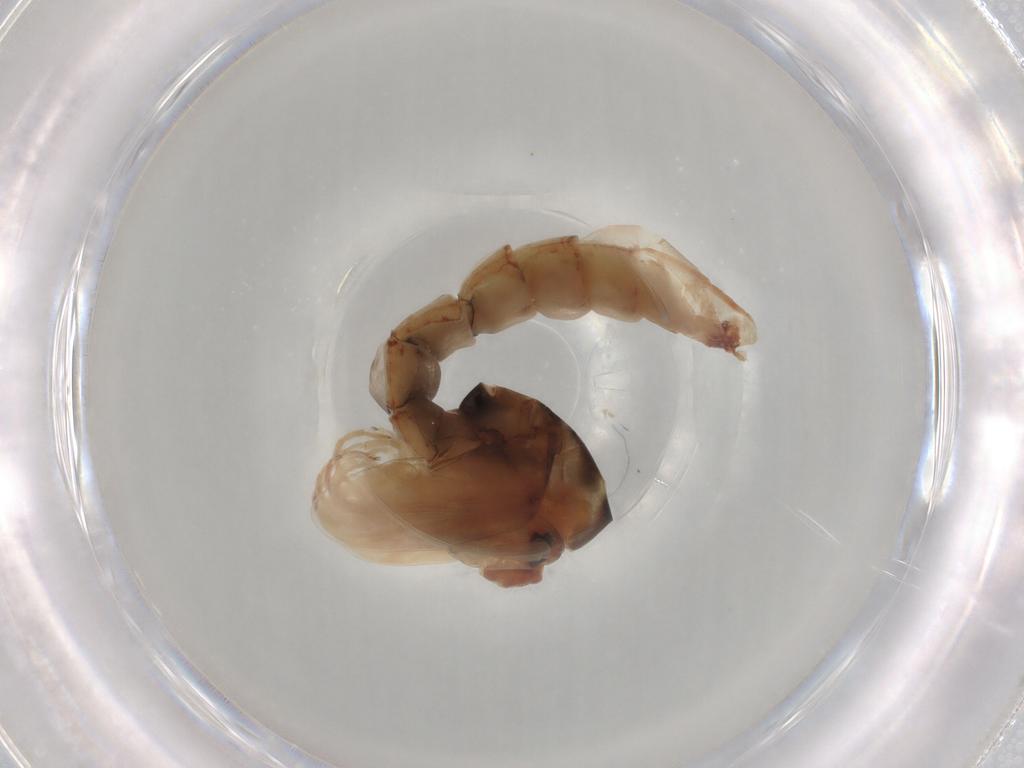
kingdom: Animalia
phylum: Arthropoda
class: Insecta
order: Diptera
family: Chironomidae
